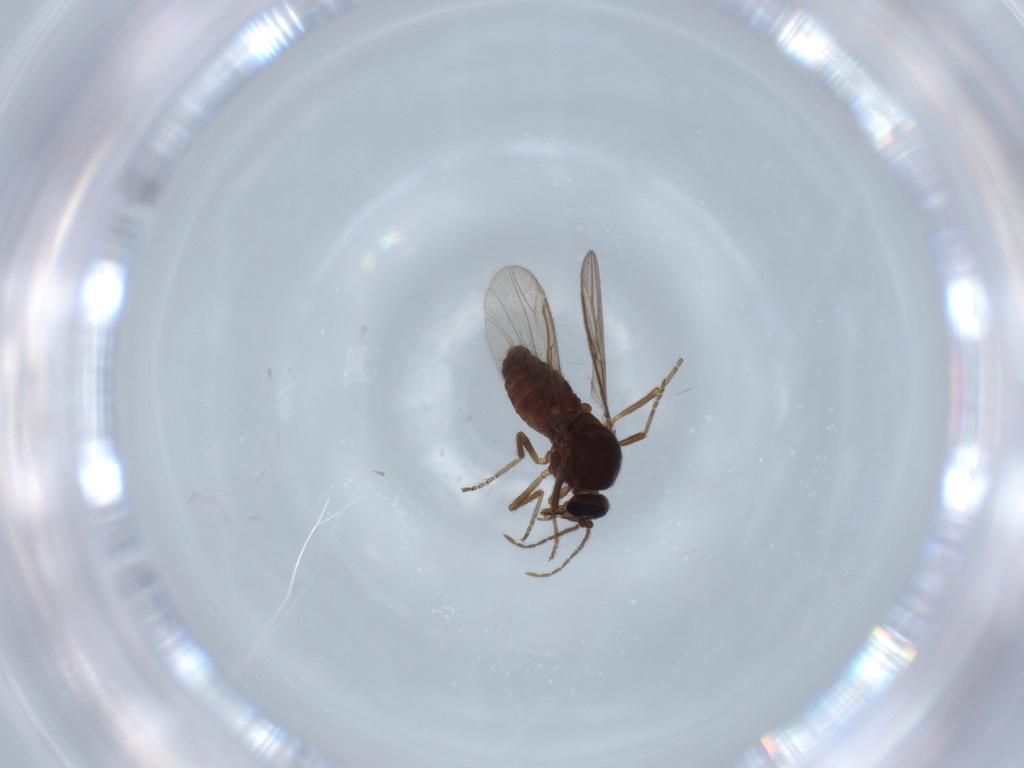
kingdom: Animalia
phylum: Arthropoda
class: Insecta
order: Diptera
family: Ceratopogonidae
